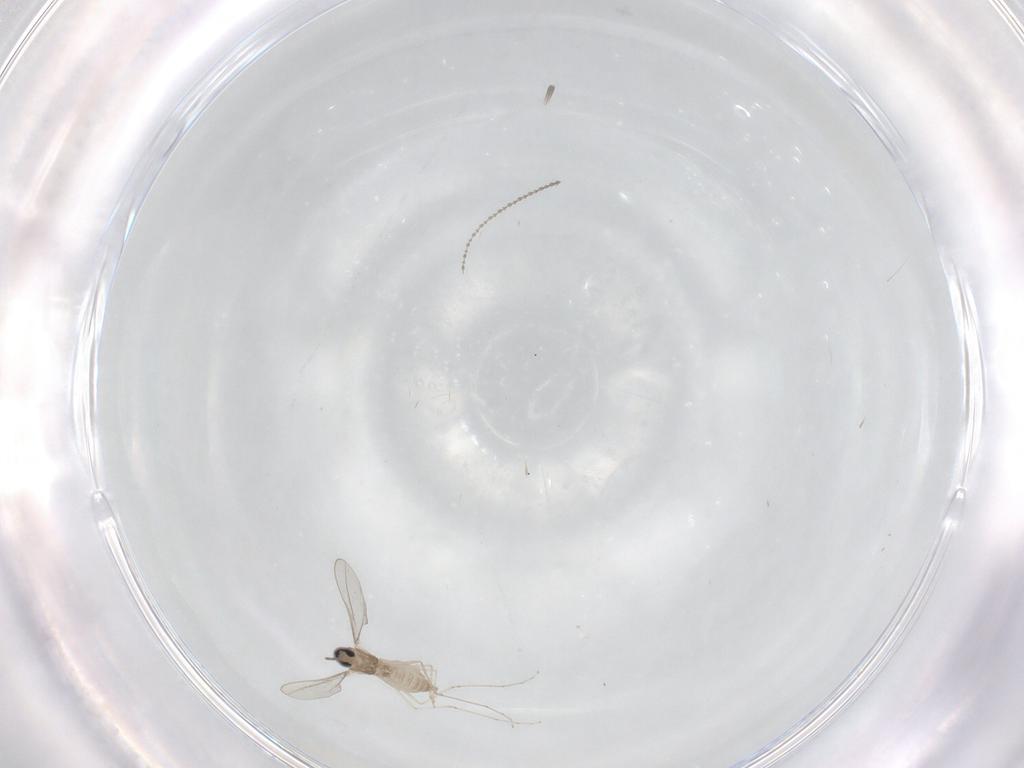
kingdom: Animalia
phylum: Arthropoda
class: Insecta
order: Diptera
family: Cecidomyiidae
